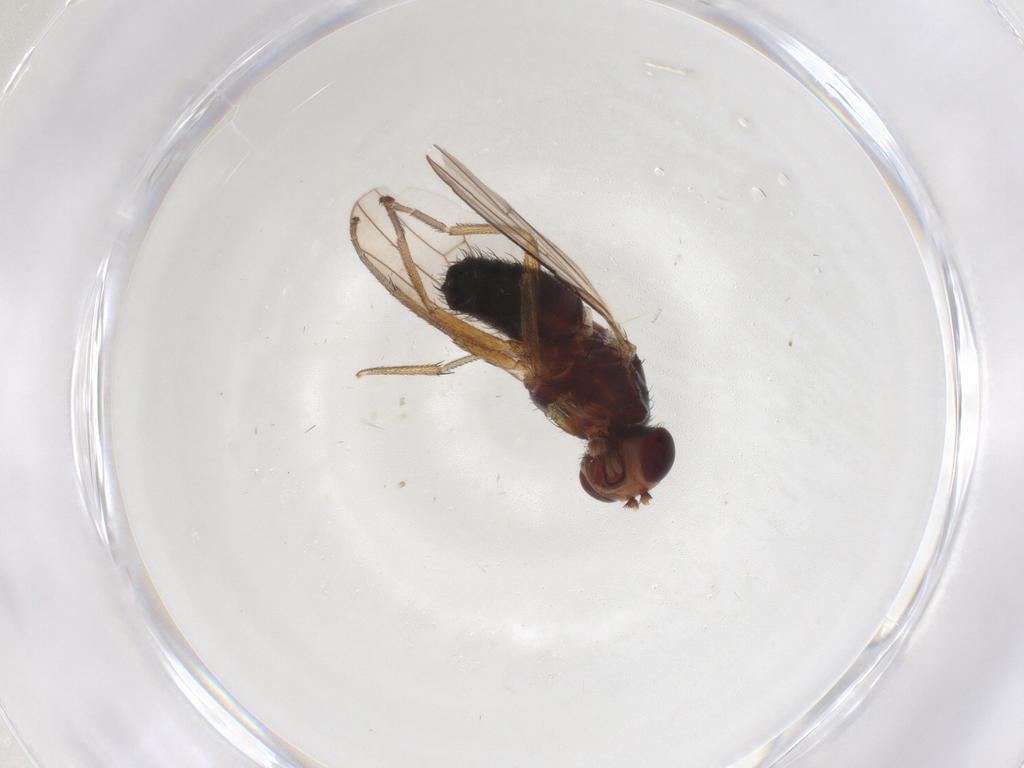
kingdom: Animalia
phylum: Arthropoda
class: Insecta
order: Diptera
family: Heleomyzidae
